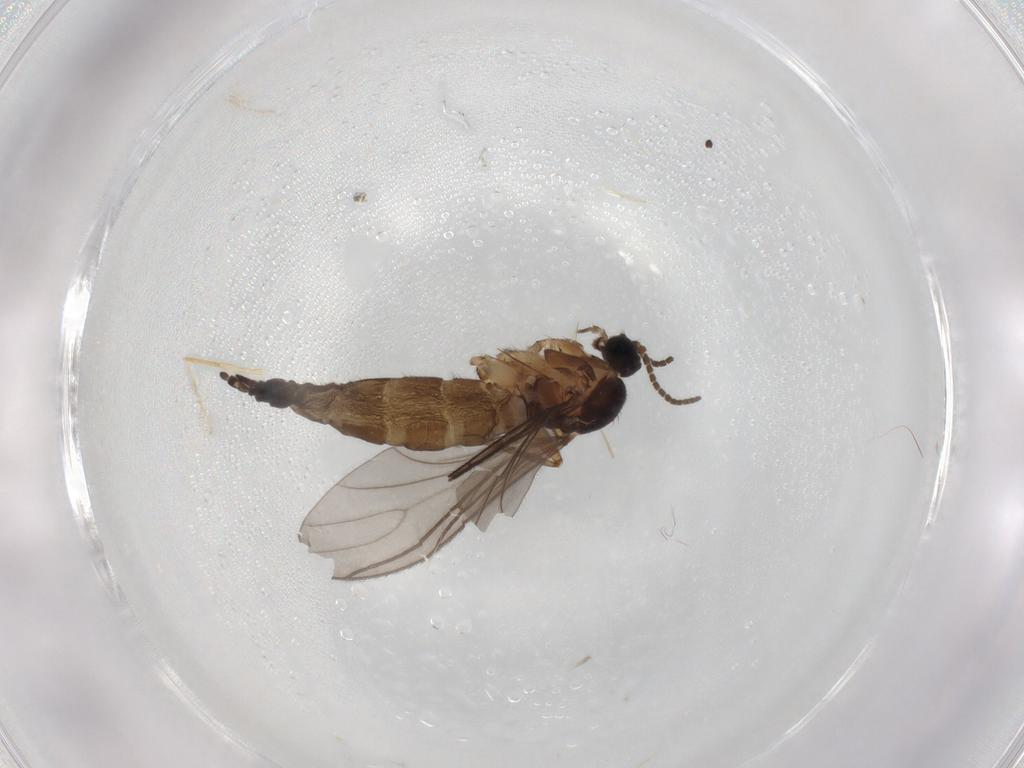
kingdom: Animalia
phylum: Arthropoda
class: Insecta
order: Diptera
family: Sciaridae
